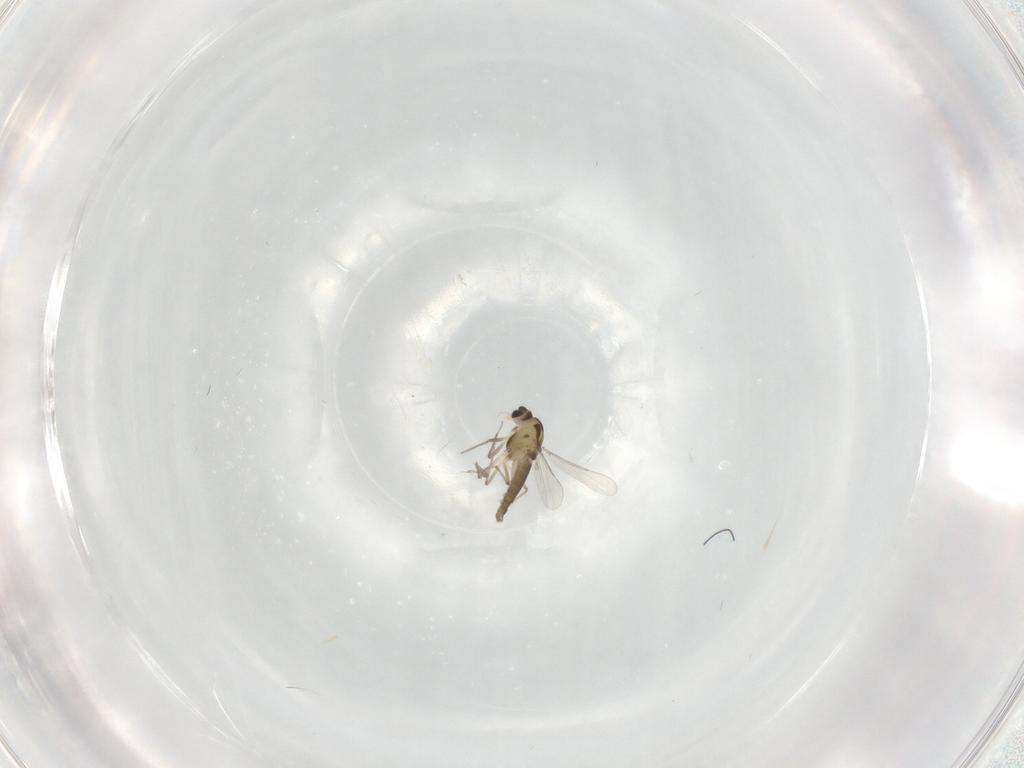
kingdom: Animalia
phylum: Arthropoda
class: Insecta
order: Diptera
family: Chironomidae
